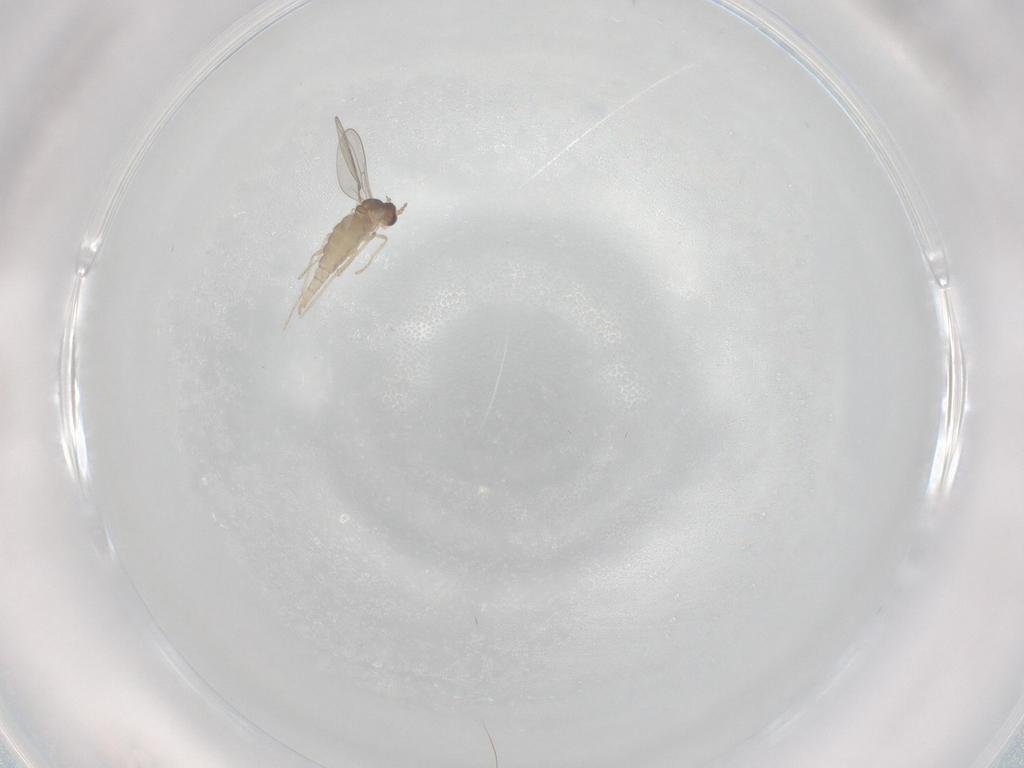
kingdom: Animalia
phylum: Arthropoda
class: Insecta
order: Diptera
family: Cecidomyiidae
